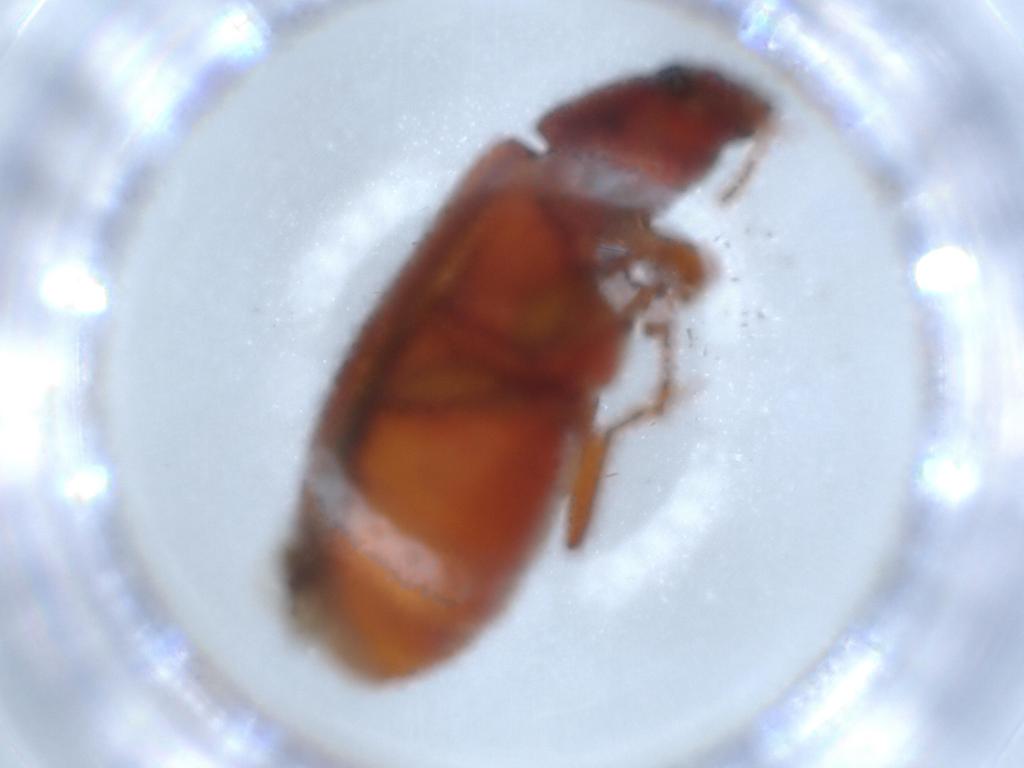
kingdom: Animalia
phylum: Arthropoda
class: Insecta
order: Coleoptera
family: Mycteridae
